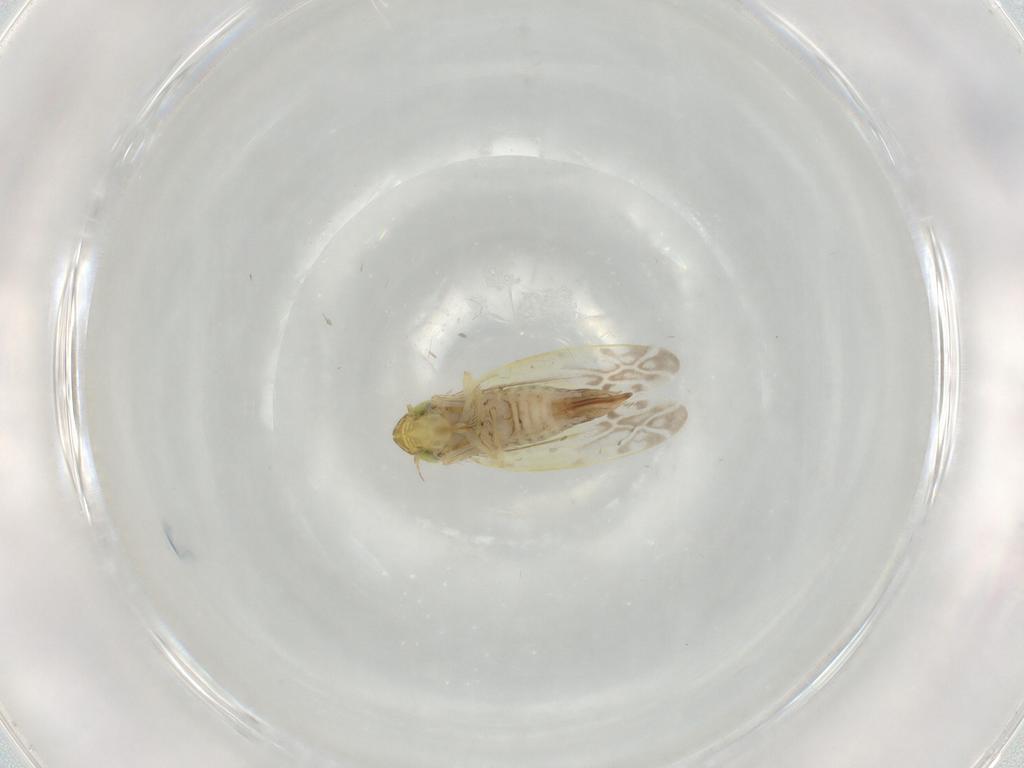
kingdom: Animalia
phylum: Arthropoda
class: Insecta
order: Hemiptera
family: Cicadellidae
